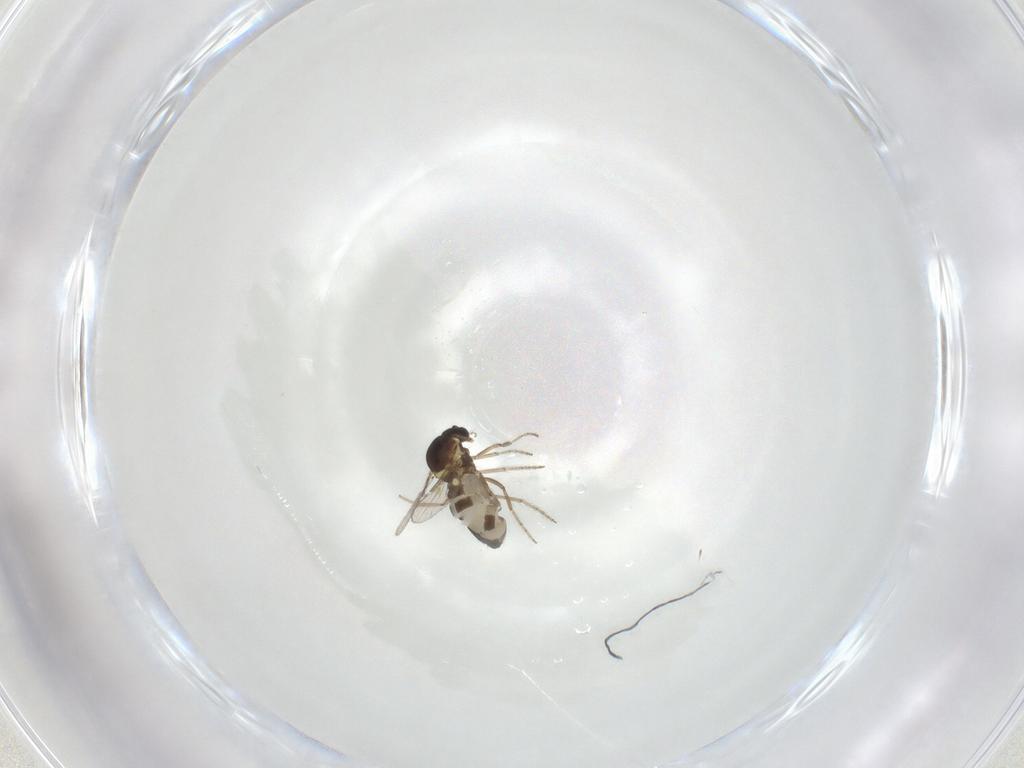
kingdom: Animalia
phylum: Arthropoda
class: Insecta
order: Diptera
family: Ceratopogonidae
